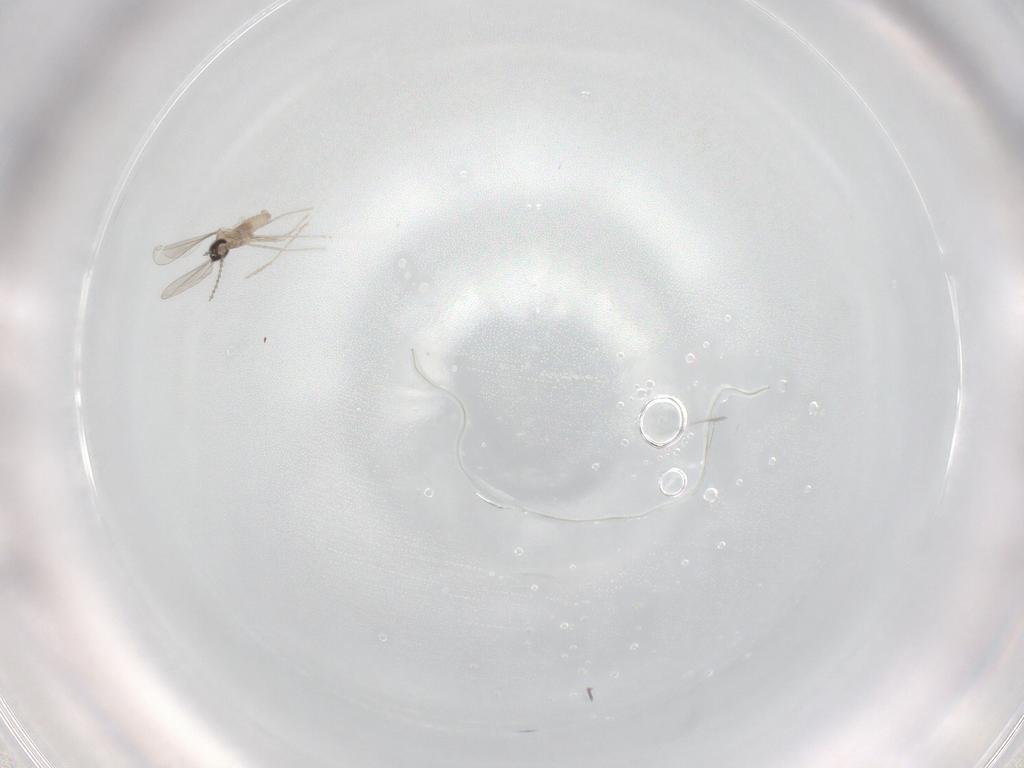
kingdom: Animalia
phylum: Arthropoda
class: Insecta
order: Diptera
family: Cecidomyiidae
